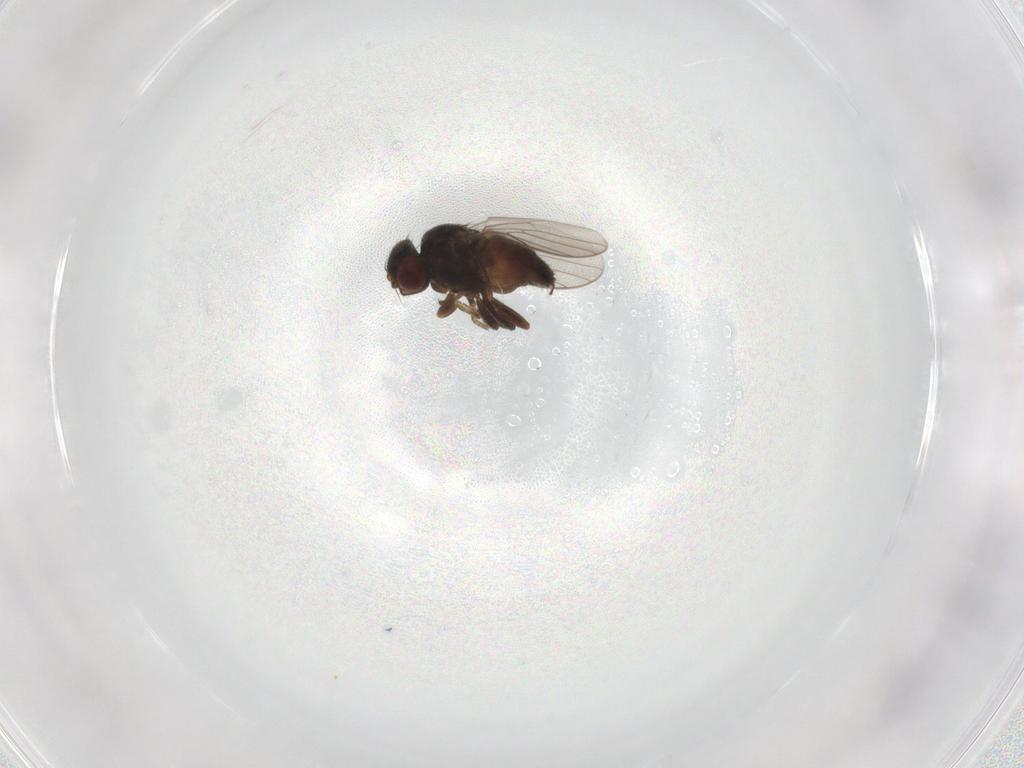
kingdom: Animalia
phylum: Arthropoda
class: Insecta
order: Diptera
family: Chloropidae
